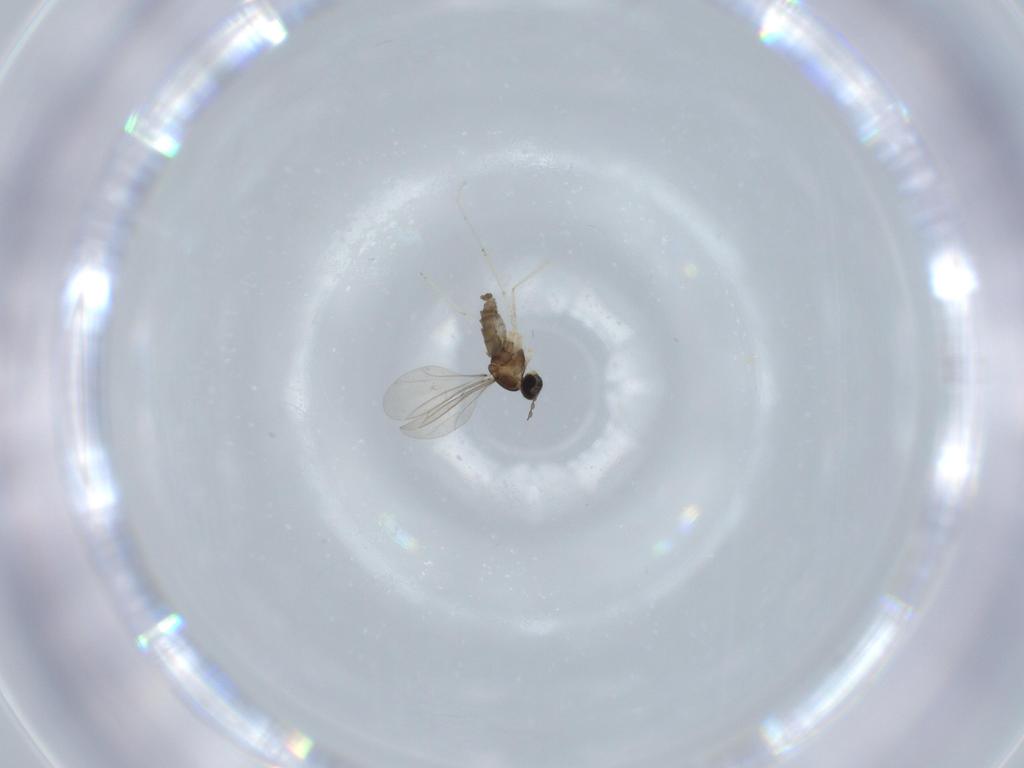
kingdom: Animalia
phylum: Arthropoda
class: Insecta
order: Diptera
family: Cecidomyiidae
